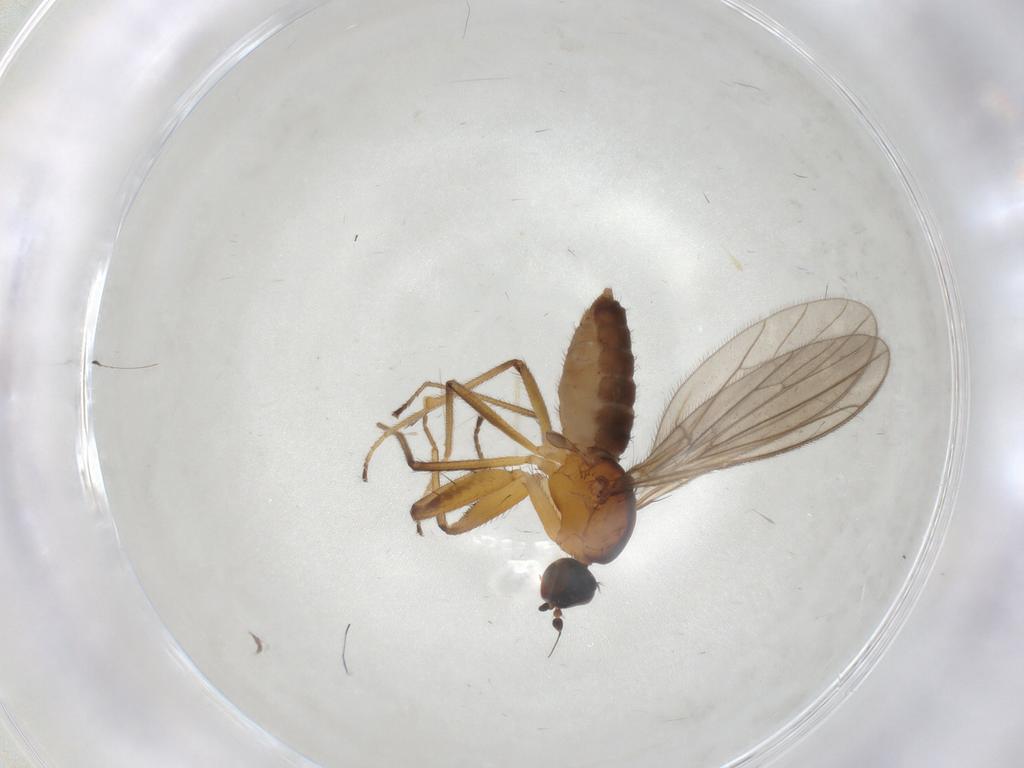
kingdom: Animalia
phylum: Arthropoda
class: Insecta
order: Diptera
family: Empididae
